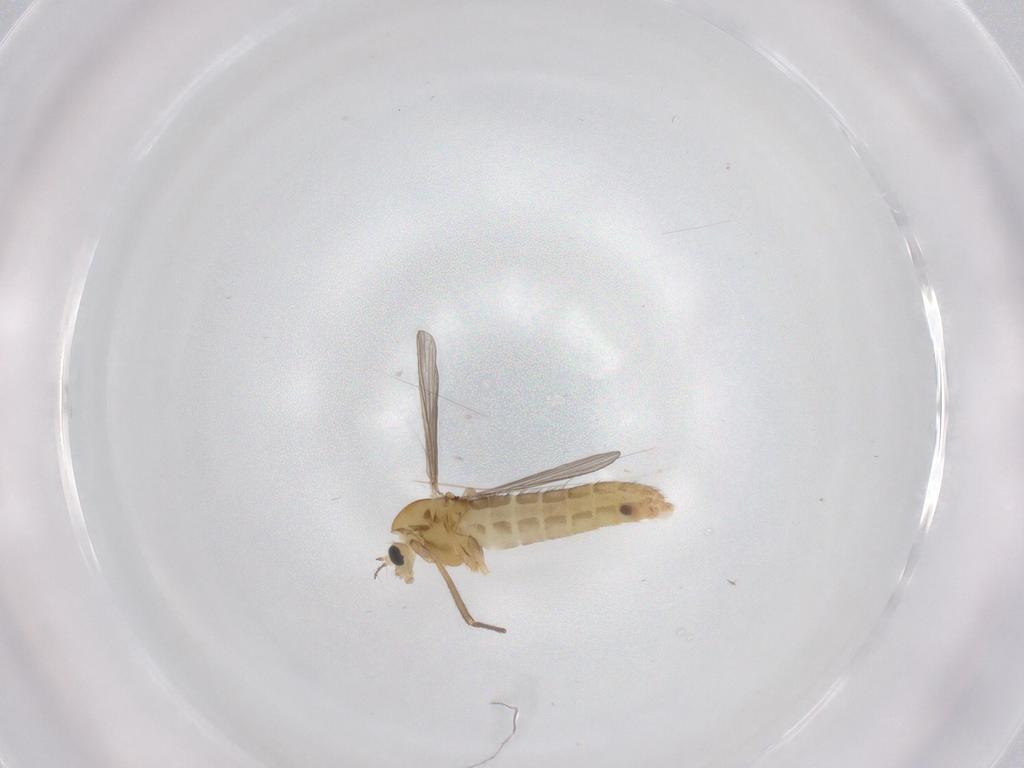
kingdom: Animalia
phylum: Arthropoda
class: Insecta
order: Diptera
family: Chironomidae
